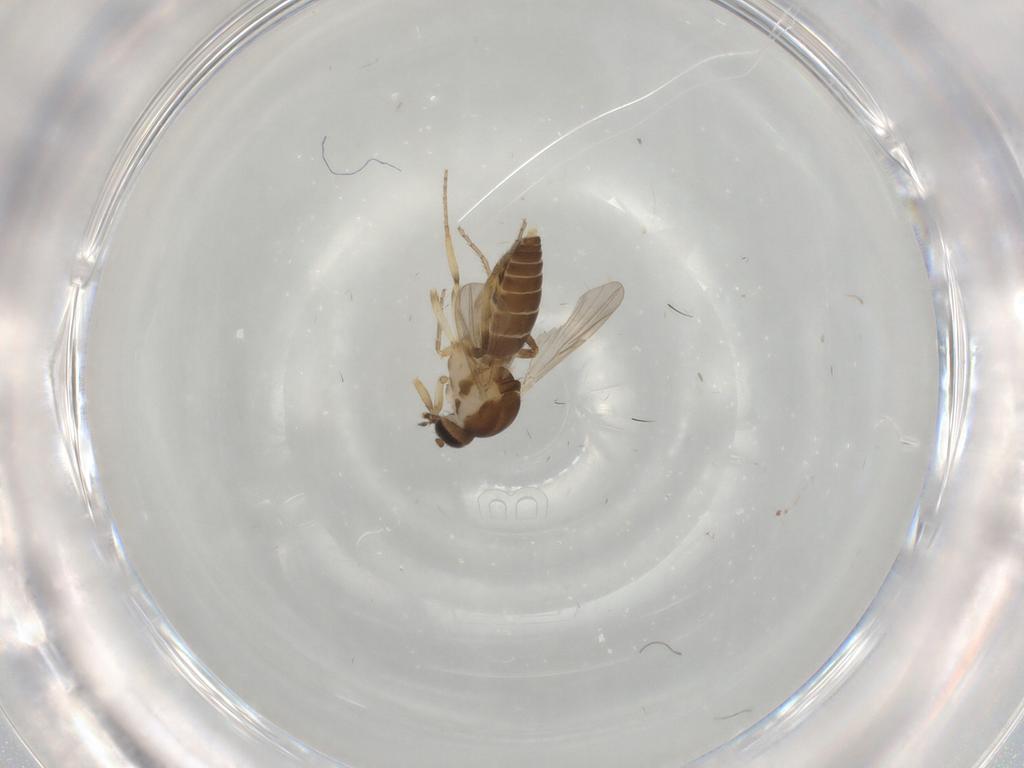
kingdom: Animalia
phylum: Arthropoda
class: Insecta
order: Diptera
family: Ceratopogonidae
